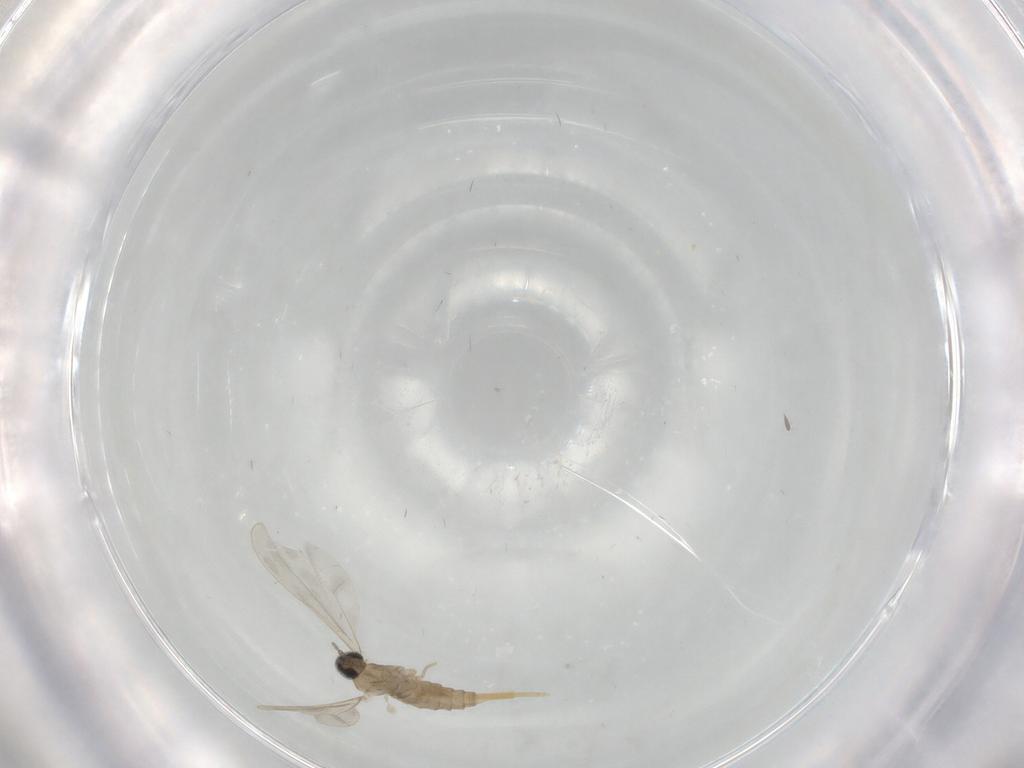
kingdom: Animalia
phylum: Arthropoda
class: Insecta
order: Diptera
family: Cecidomyiidae
